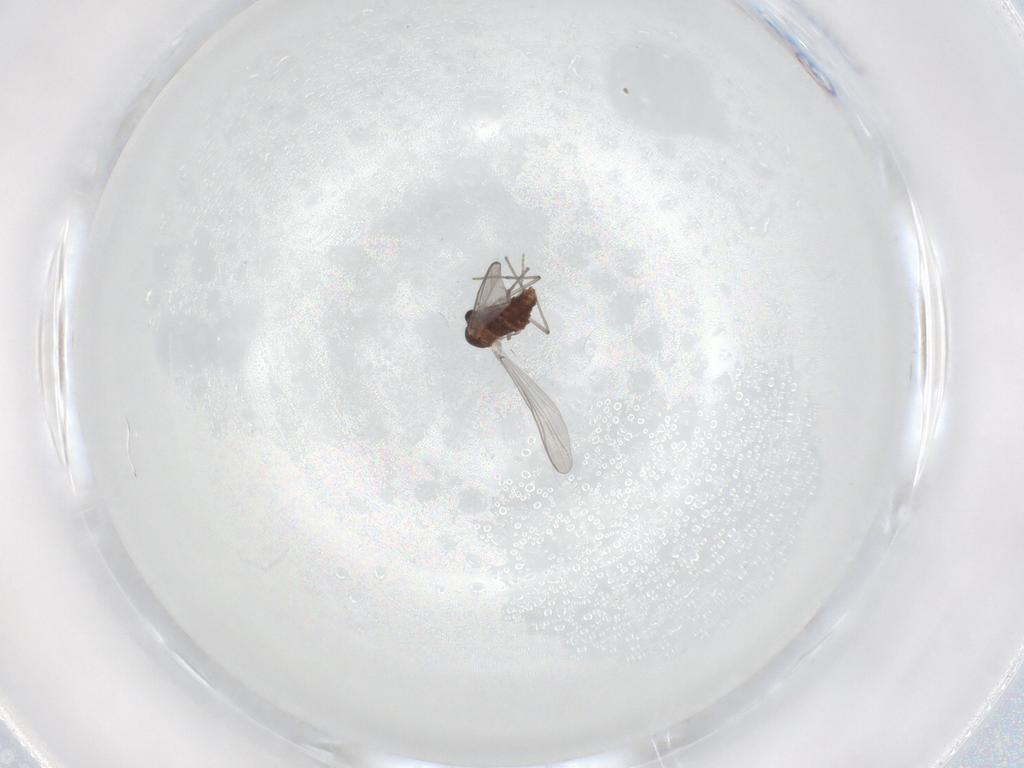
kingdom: Animalia
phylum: Arthropoda
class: Insecta
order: Diptera
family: Chironomidae
